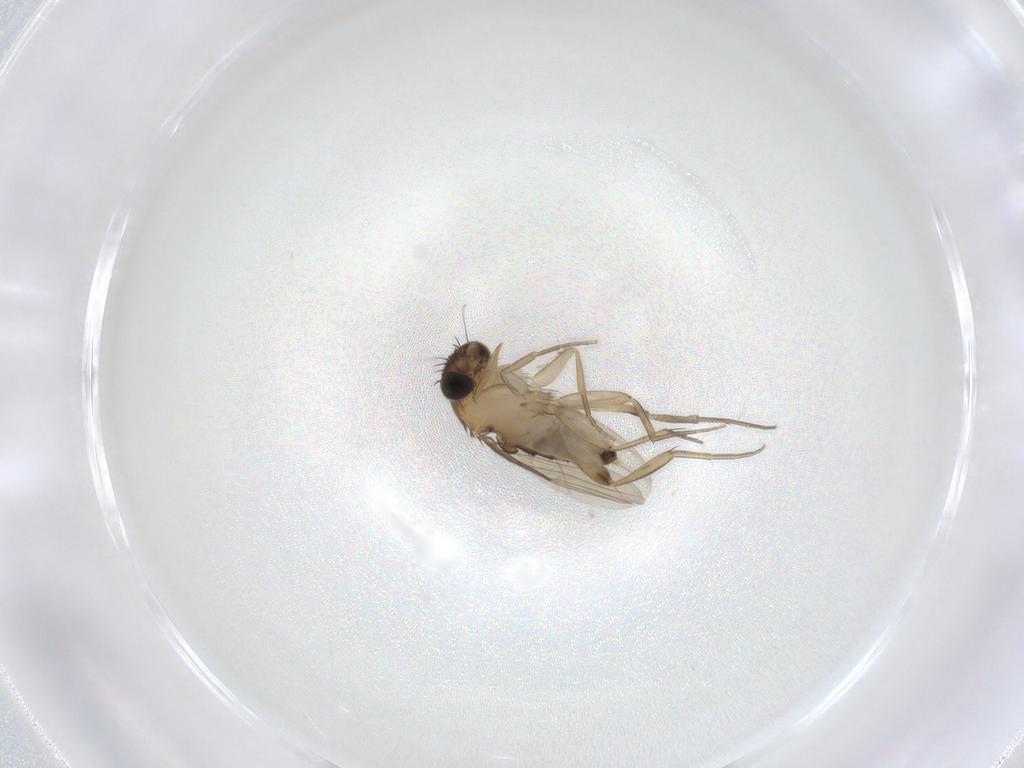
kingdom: Animalia
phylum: Arthropoda
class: Insecta
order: Diptera
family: Phoridae
